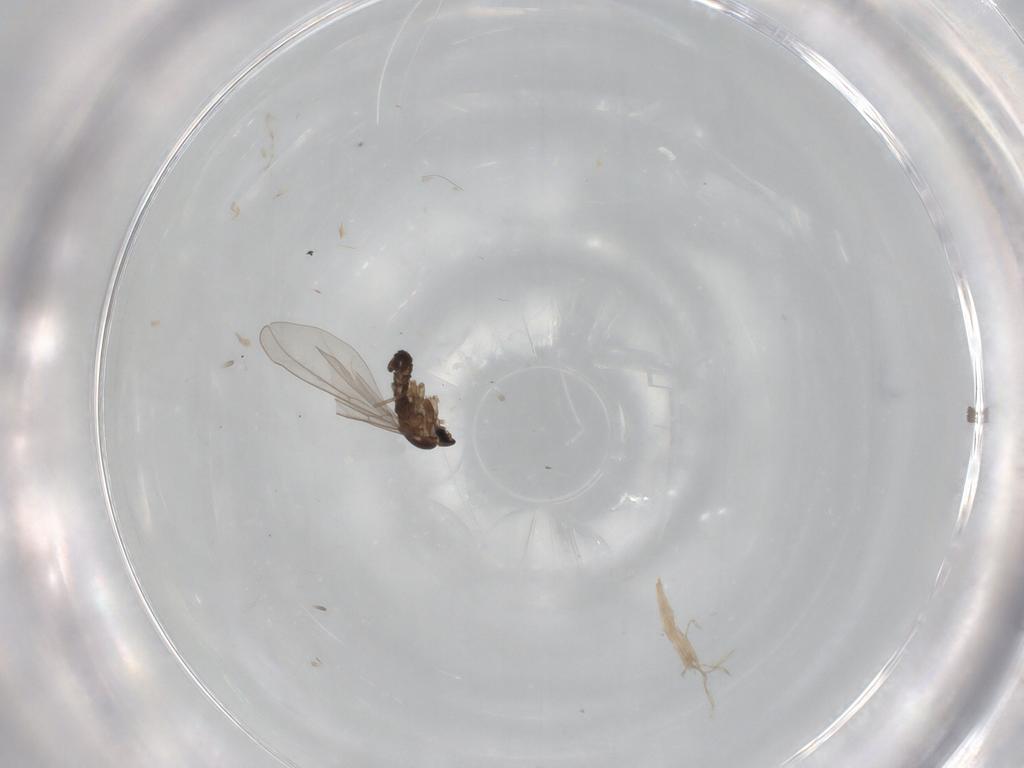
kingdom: Animalia
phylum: Arthropoda
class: Insecta
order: Diptera
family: Cecidomyiidae
